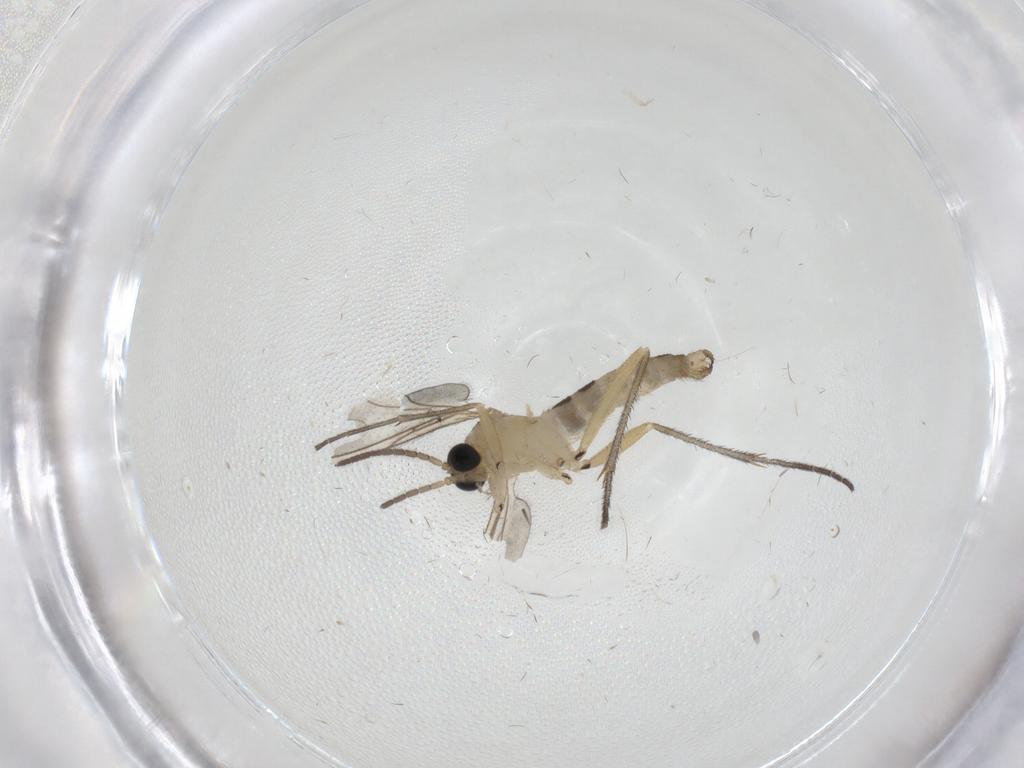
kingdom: Animalia
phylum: Arthropoda
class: Insecta
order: Diptera
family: Sciaridae
